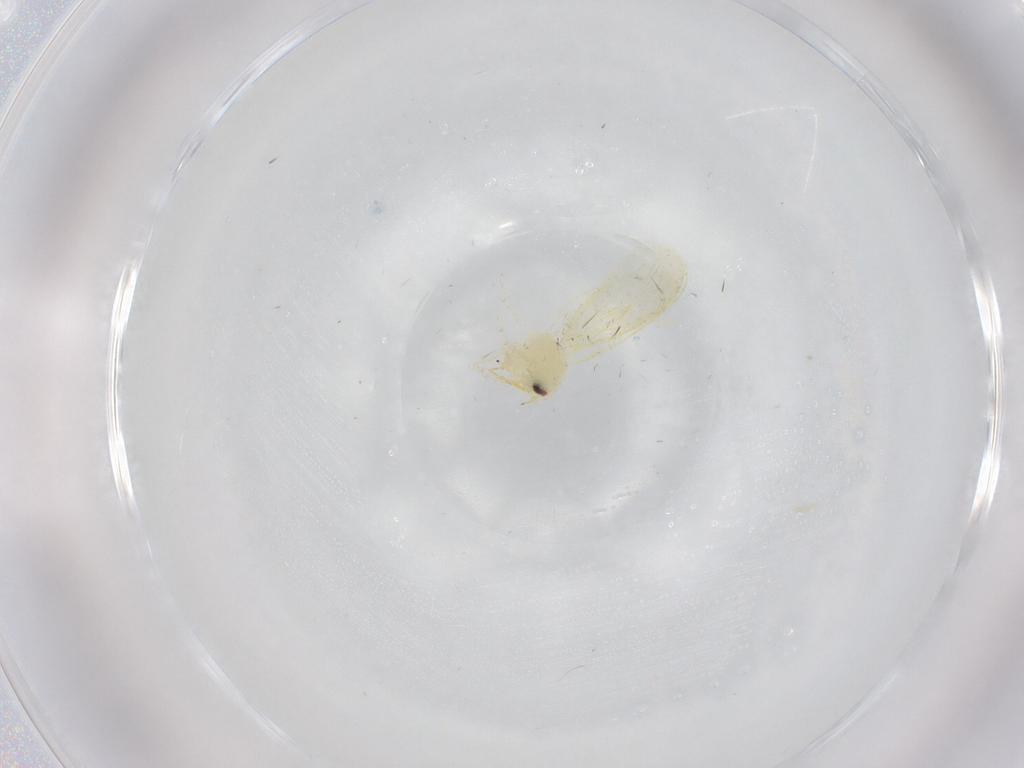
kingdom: Animalia
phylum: Arthropoda
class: Insecta
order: Hemiptera
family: Aleyrodidae
